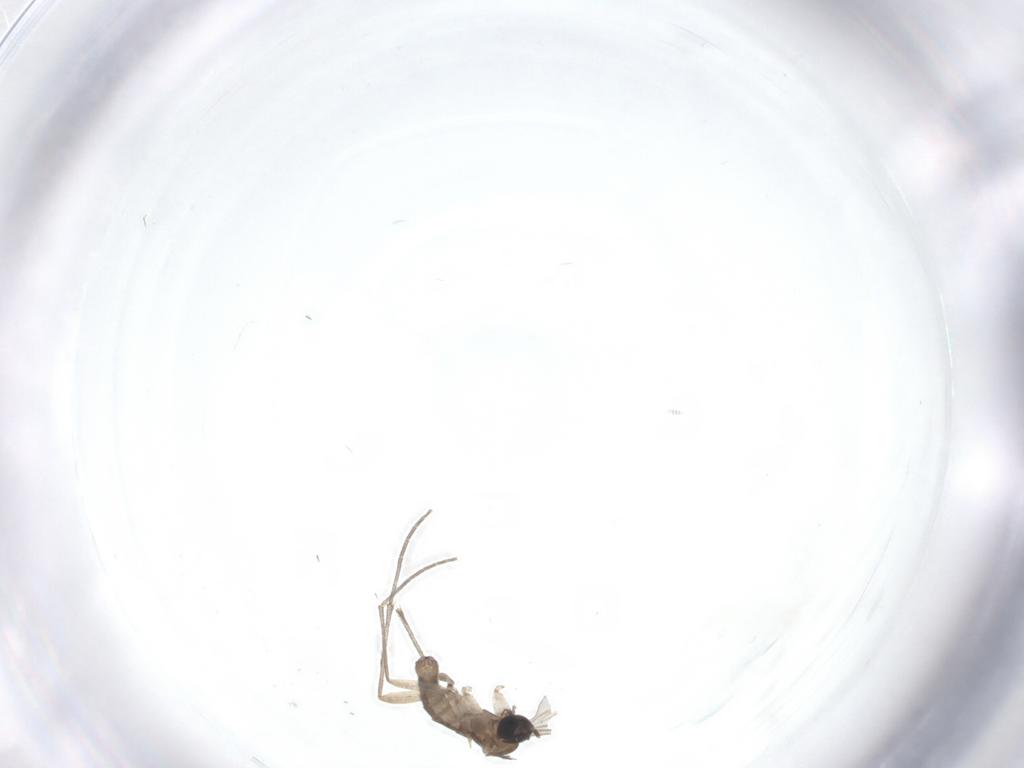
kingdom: Animalia
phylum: Arthropoda
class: Insecta
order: Diptera
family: Sciaridae
